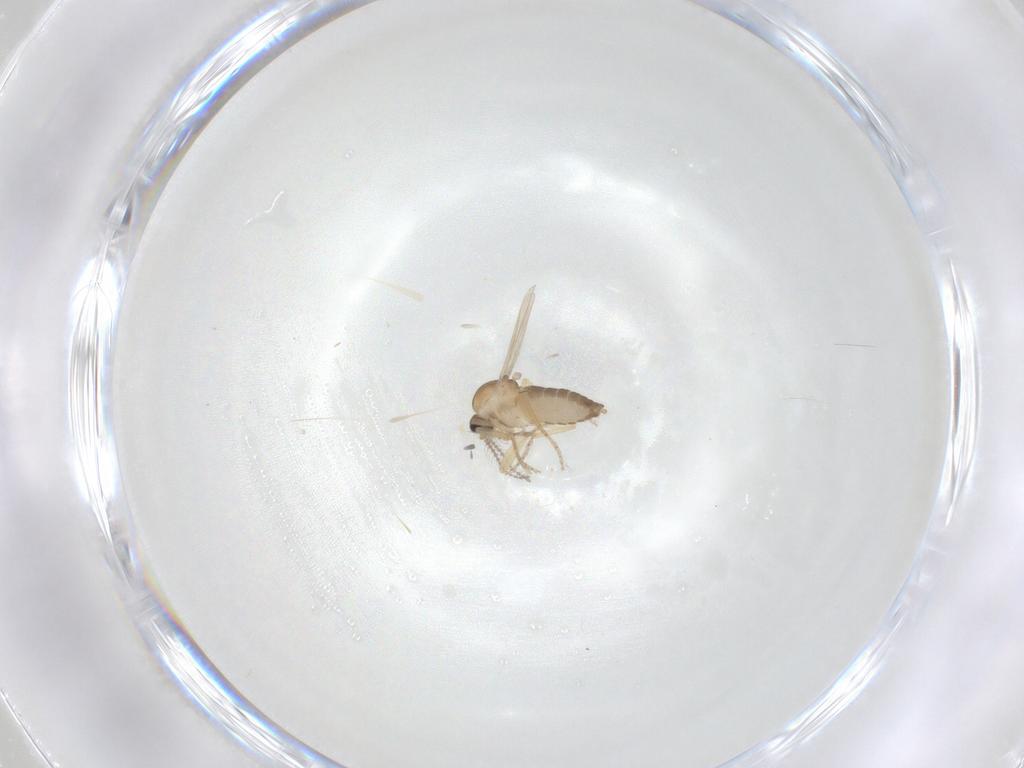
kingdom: Animalia
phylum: Arthropoda
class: Insecta
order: Diptera
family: Ceratopogonidae
